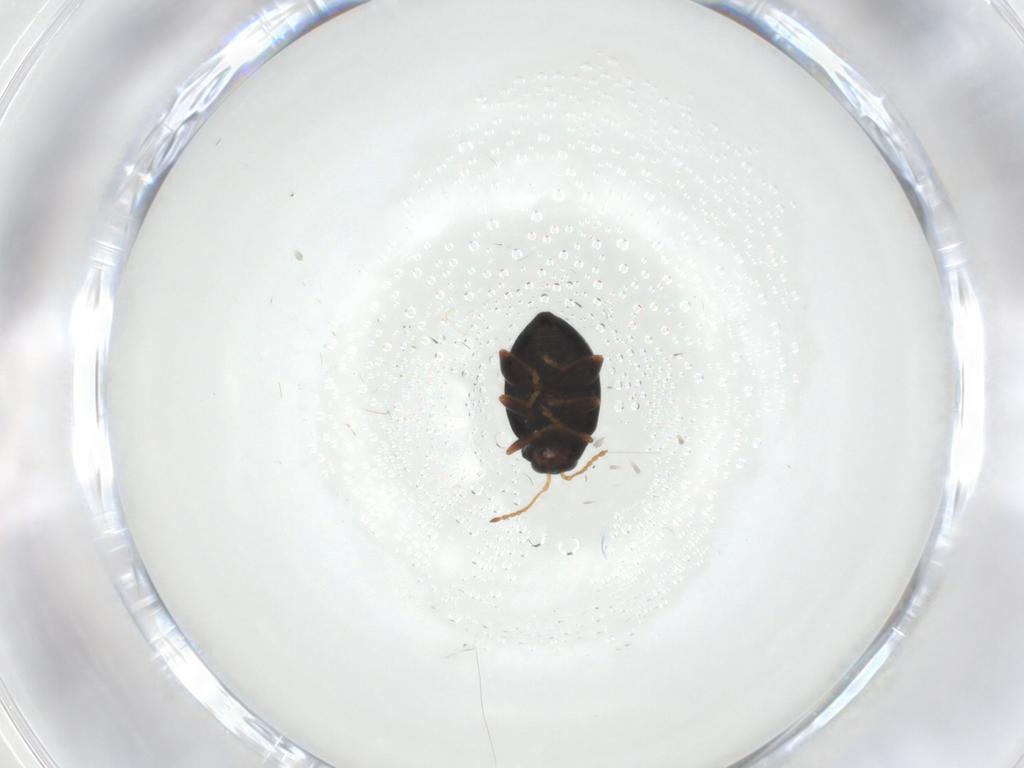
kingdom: Animalia
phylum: Arthropoda
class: Insecta
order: Coleoptera
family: Chrysomelidae
